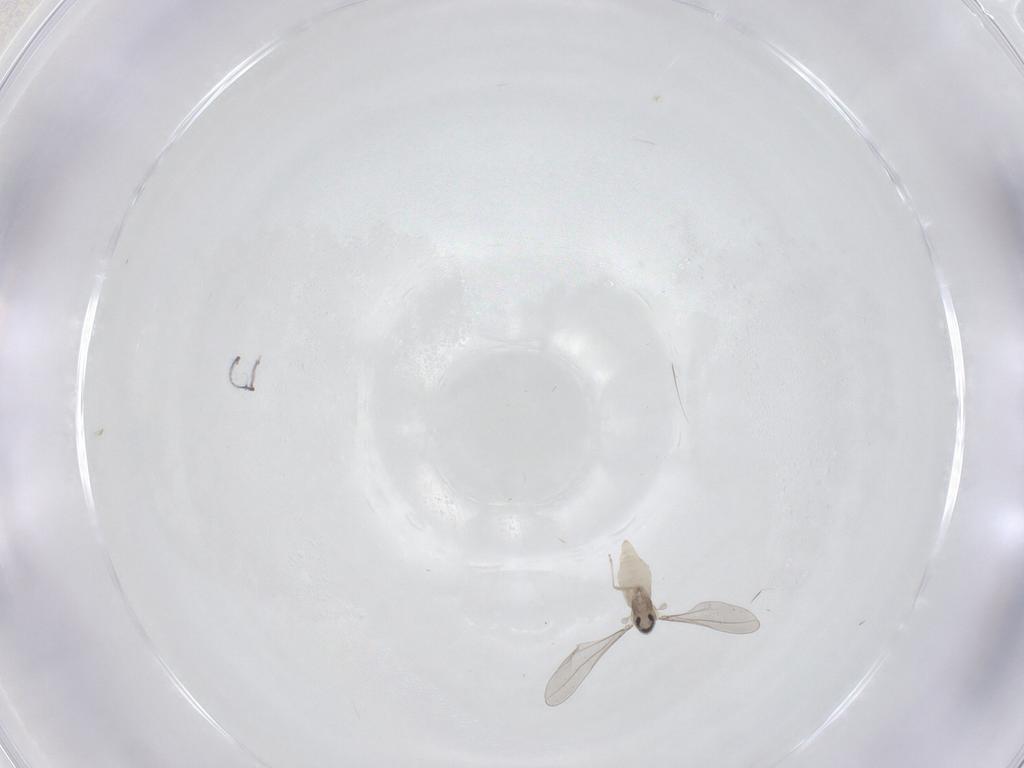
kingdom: Animalia
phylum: Arthropoda
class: Insecta
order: Diptera
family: Cecidomyiidae
